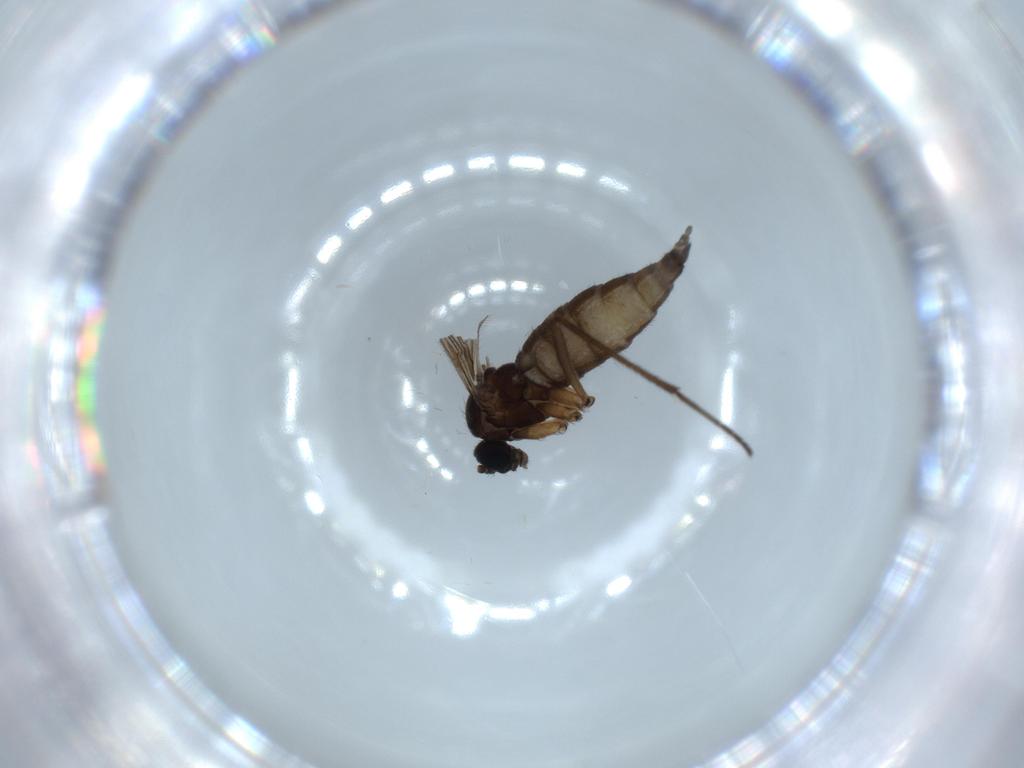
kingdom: Animalia
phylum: Arthropoda
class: Insecta
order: Diptera
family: Sciaridae
